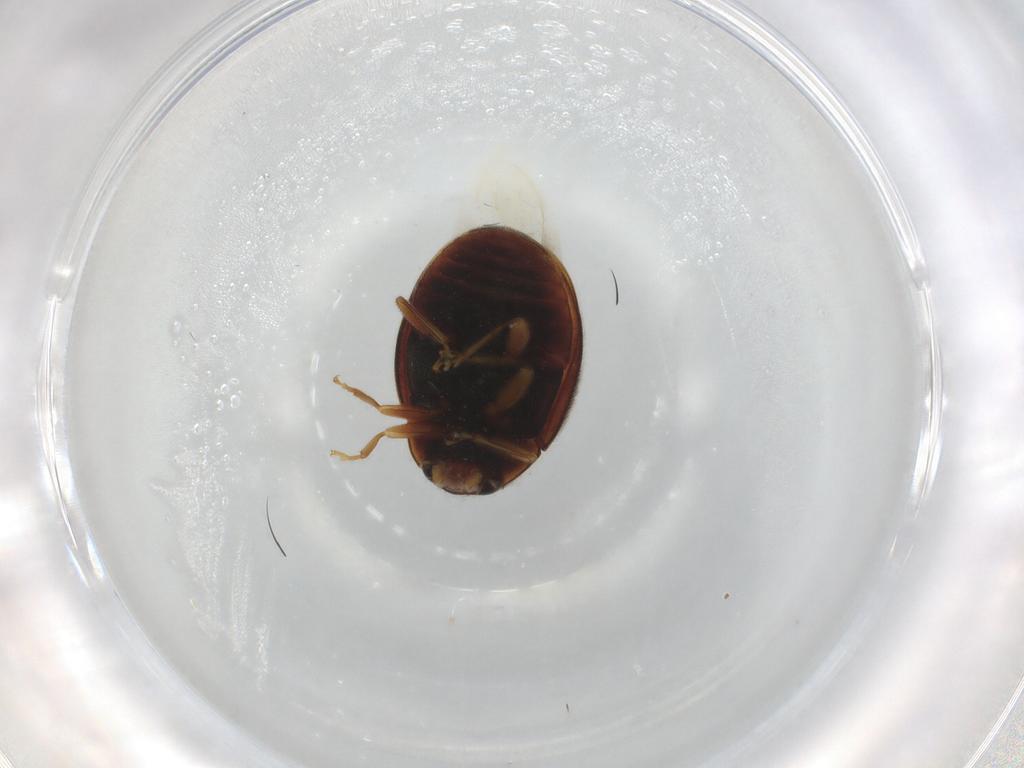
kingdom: Animalia
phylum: Arthropoda
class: Insecta
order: Coleoptera
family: Coccinellidae
